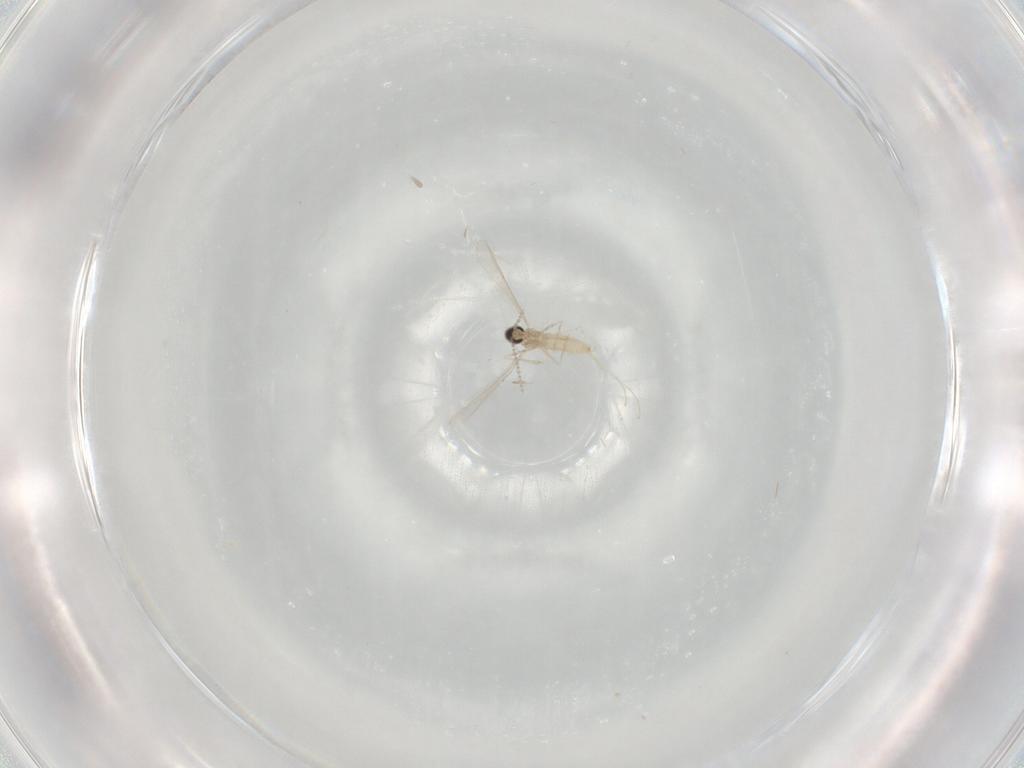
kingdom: Animalia
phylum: Arthropoda
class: Insecta
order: Diptera
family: Cecidomyiidae
